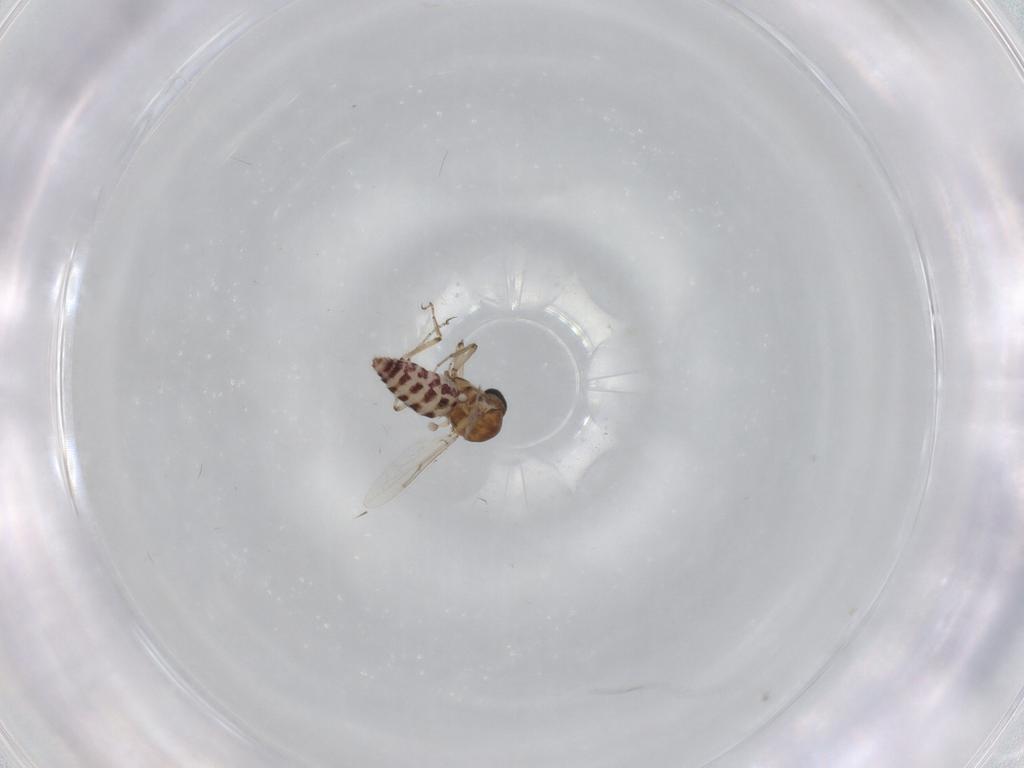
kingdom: Animalia
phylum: Arthropoda
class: Insecta
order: Diptera
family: Ceratopogonidae
